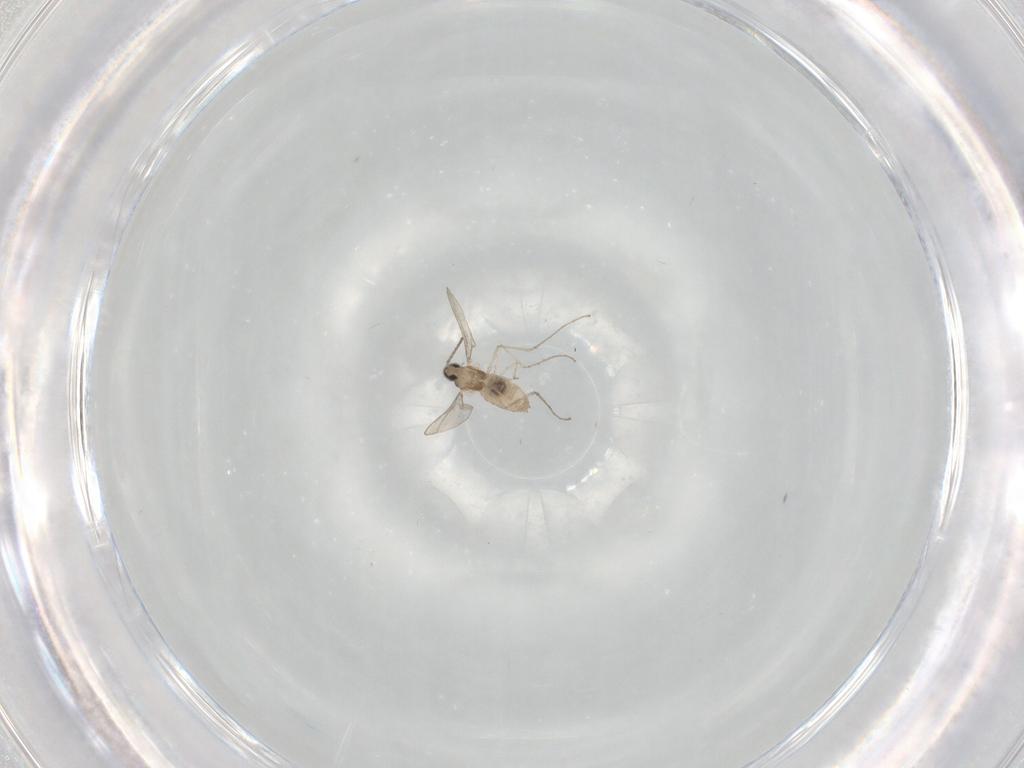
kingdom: Animalia
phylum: Arthropoda
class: Insecta
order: Diptera
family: Cecidomyiidae
